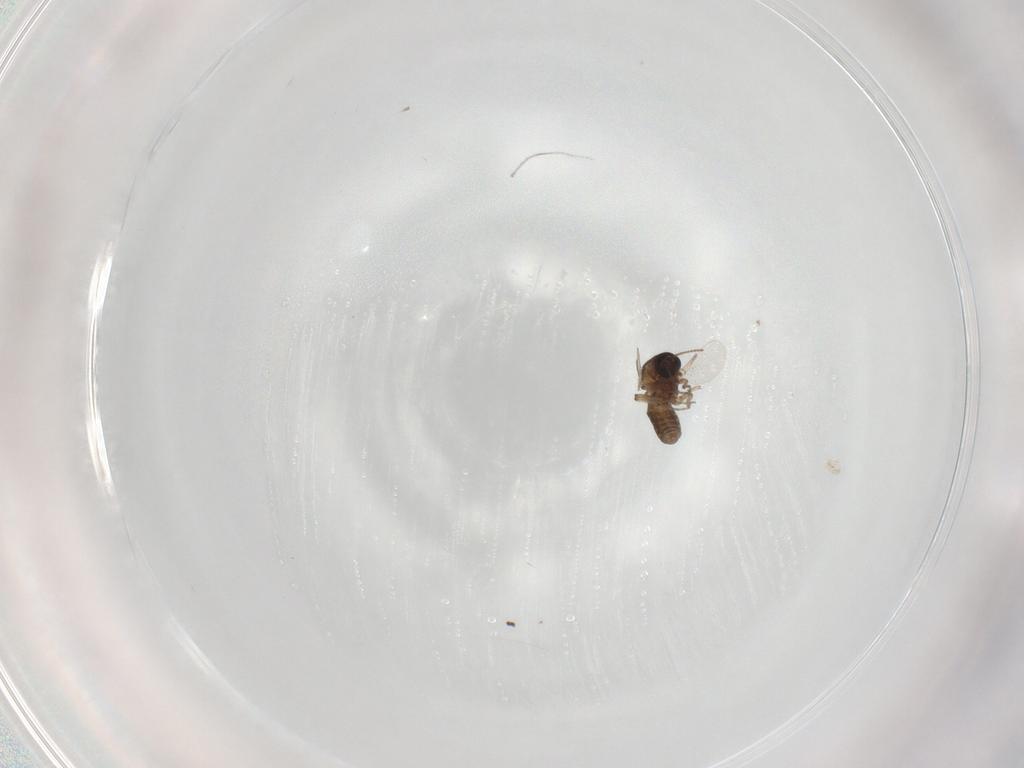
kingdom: Animalia
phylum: Arthropoda
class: Insecta
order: Diptera
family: Ceratopogonidae
